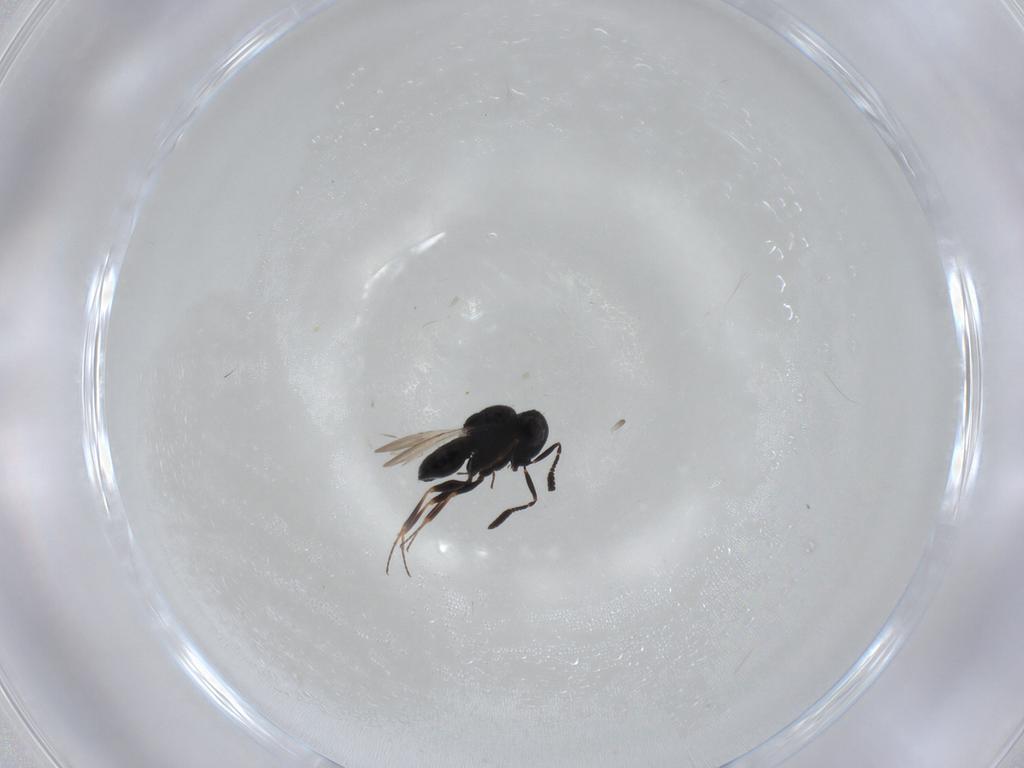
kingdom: Animalia
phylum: Arthropoda
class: Insecta
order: Hymenoptera
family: Scelionidae
